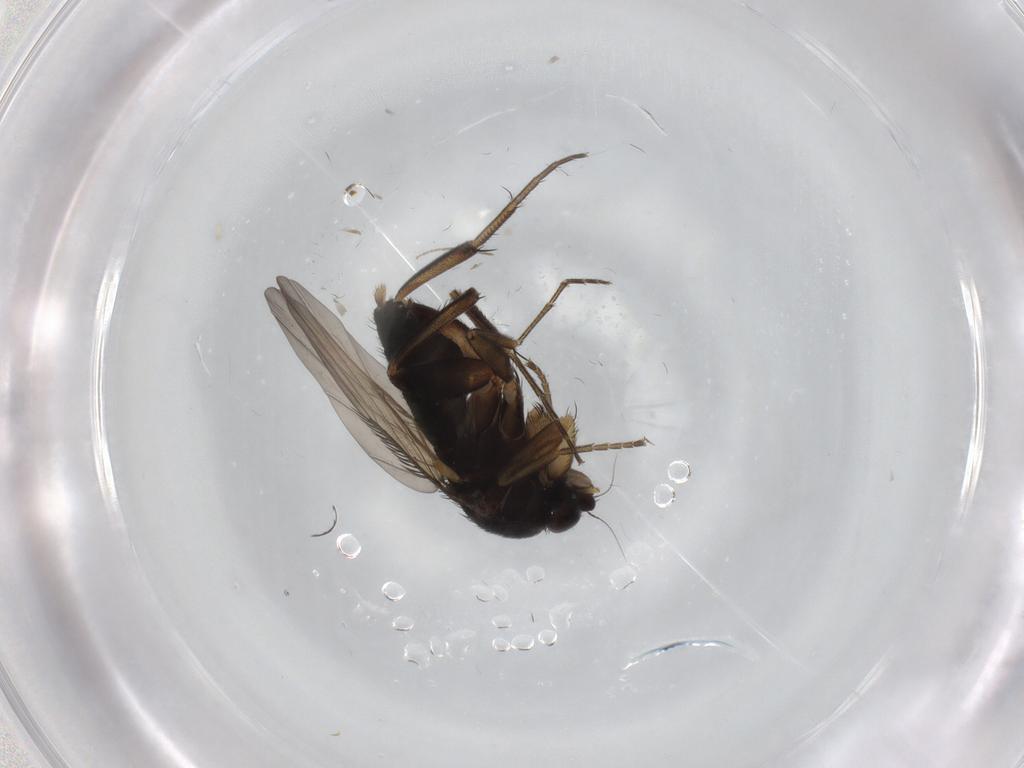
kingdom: Animalia
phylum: Arthropoda
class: Insecta
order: Diptera
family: Phoridae
